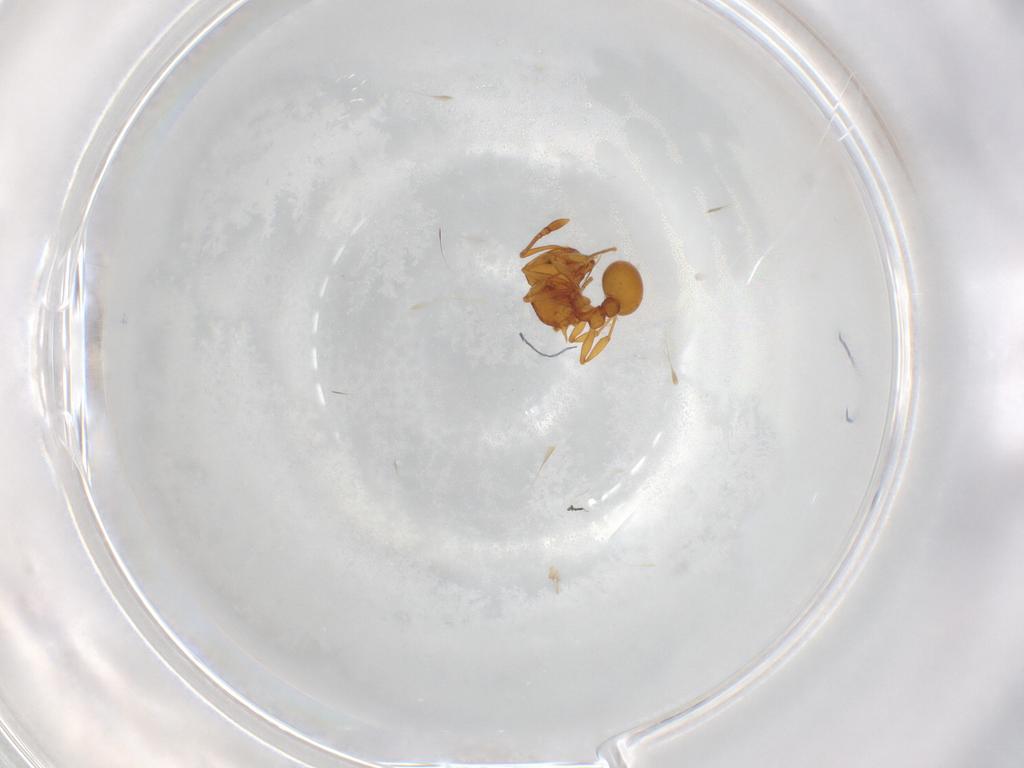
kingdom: Animalia
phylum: Arthropoda
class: Insecta
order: Hymenoptera
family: Formicidae
